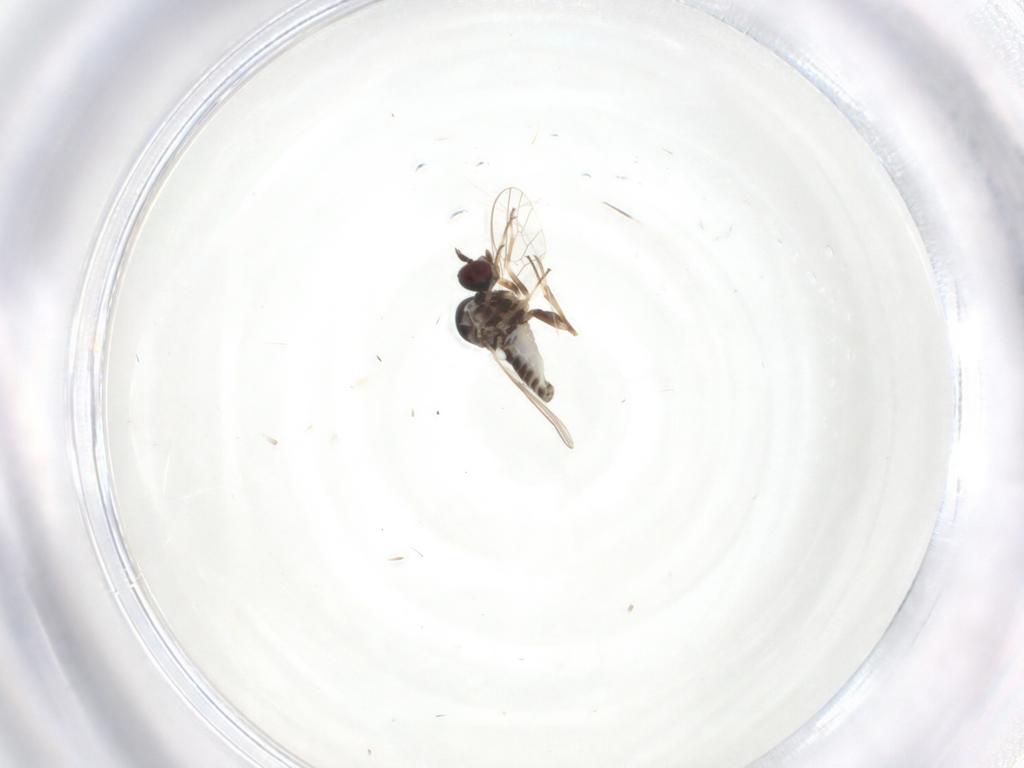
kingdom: Animalia
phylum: Arthropoda
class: Insecta
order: Diptera
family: Bombyliidae
